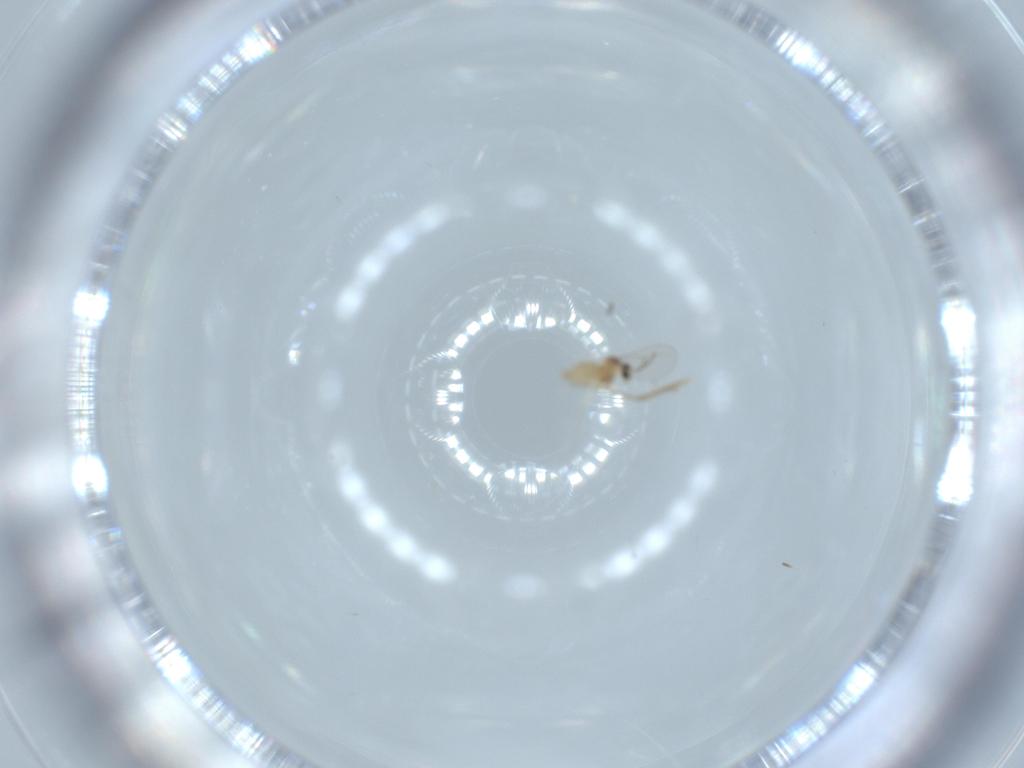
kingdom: Animalia
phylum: Arthropoda
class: Insecta
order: Diptera
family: Cecidomyiidae
